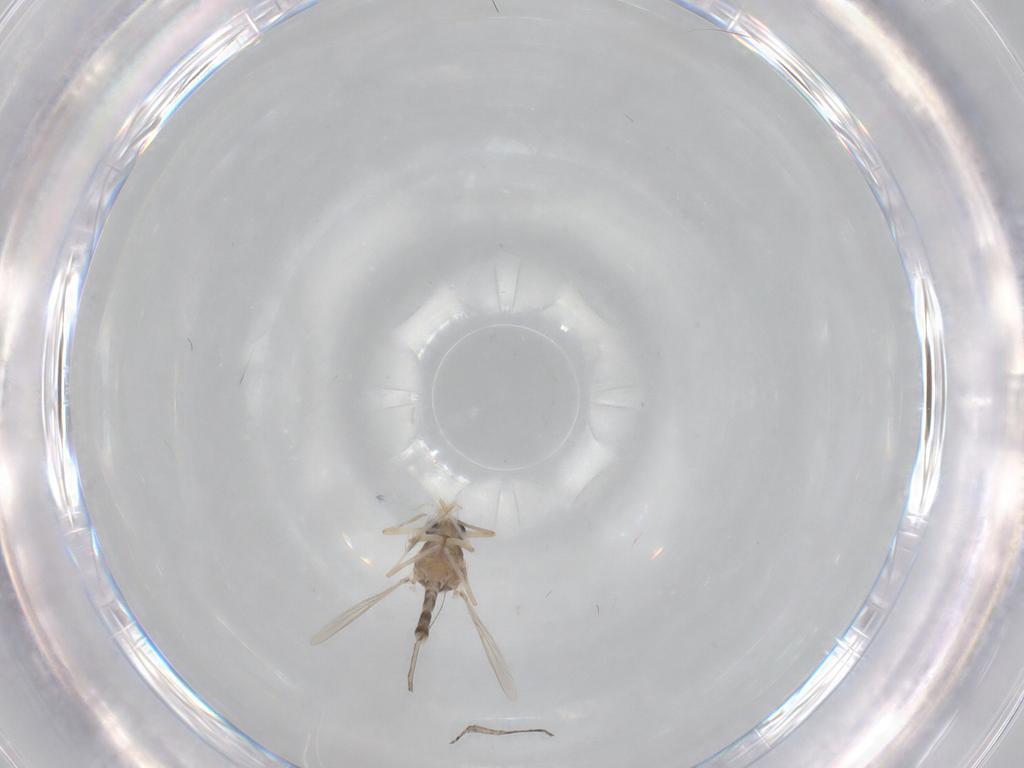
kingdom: Animalia
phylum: Arthropoda
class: Insecta
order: Diptera
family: Chironomidae
